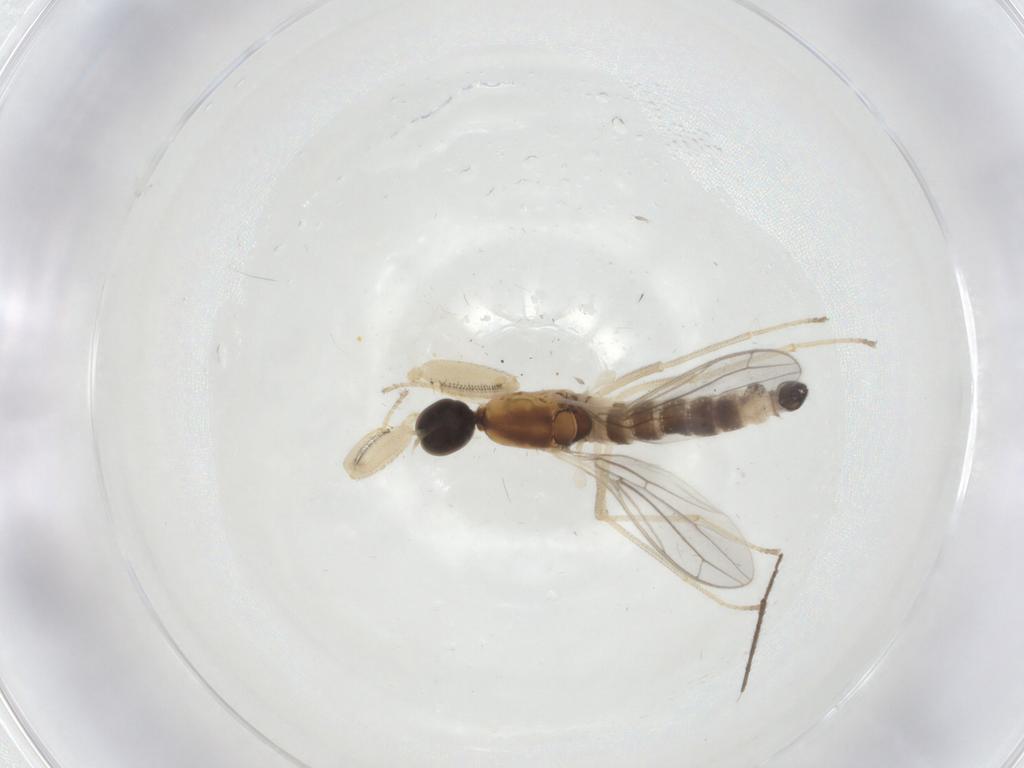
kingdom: Animalia
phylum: Arthropoda
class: Insecta
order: Diptera
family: Empididae
